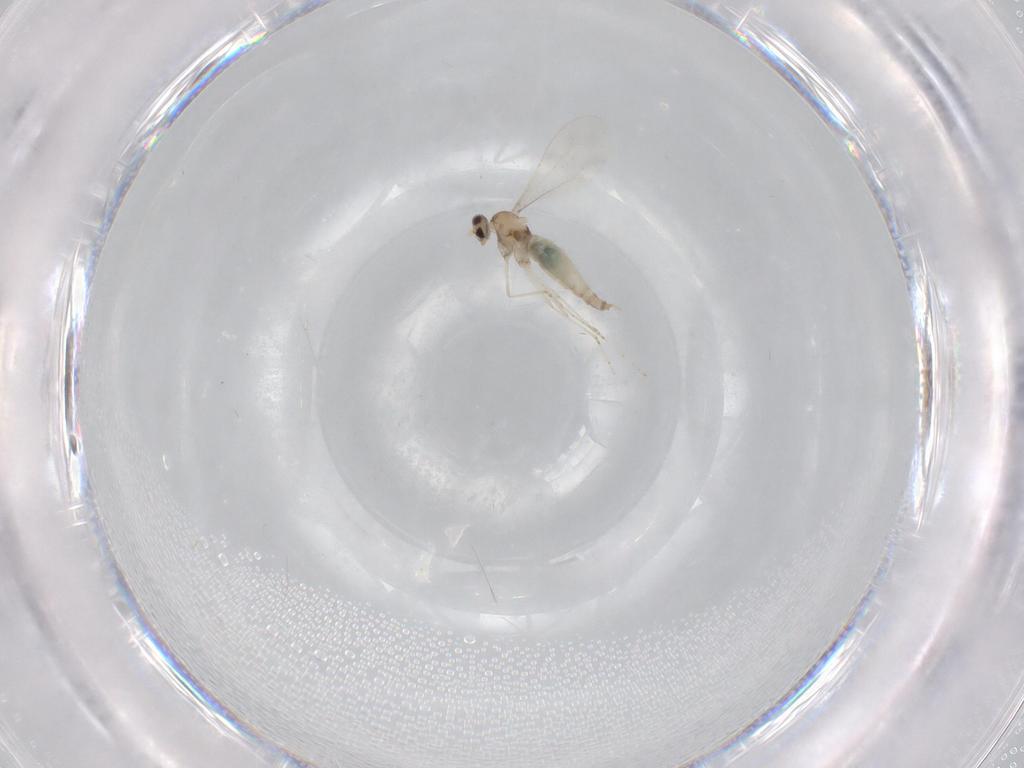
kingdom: Animalia
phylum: Arthropoda
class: Insecta
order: Diptera
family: Cecidomyiidae
